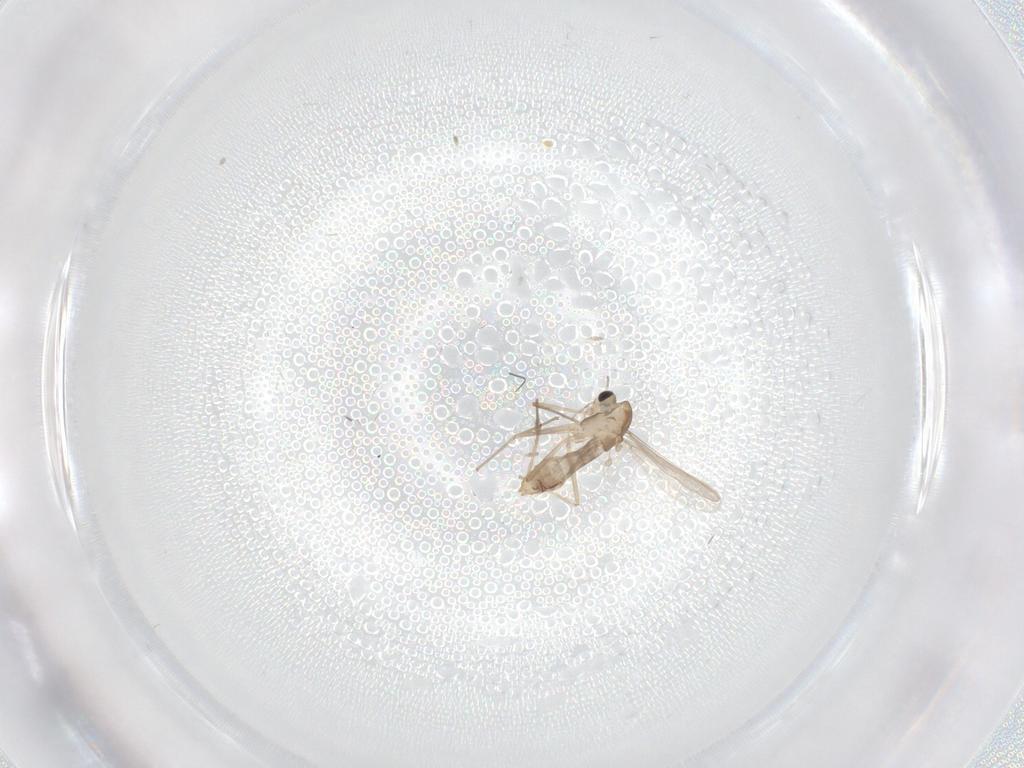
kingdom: Animalia
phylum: Arthropoda
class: Insecta
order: Diptera
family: Chironomidae
